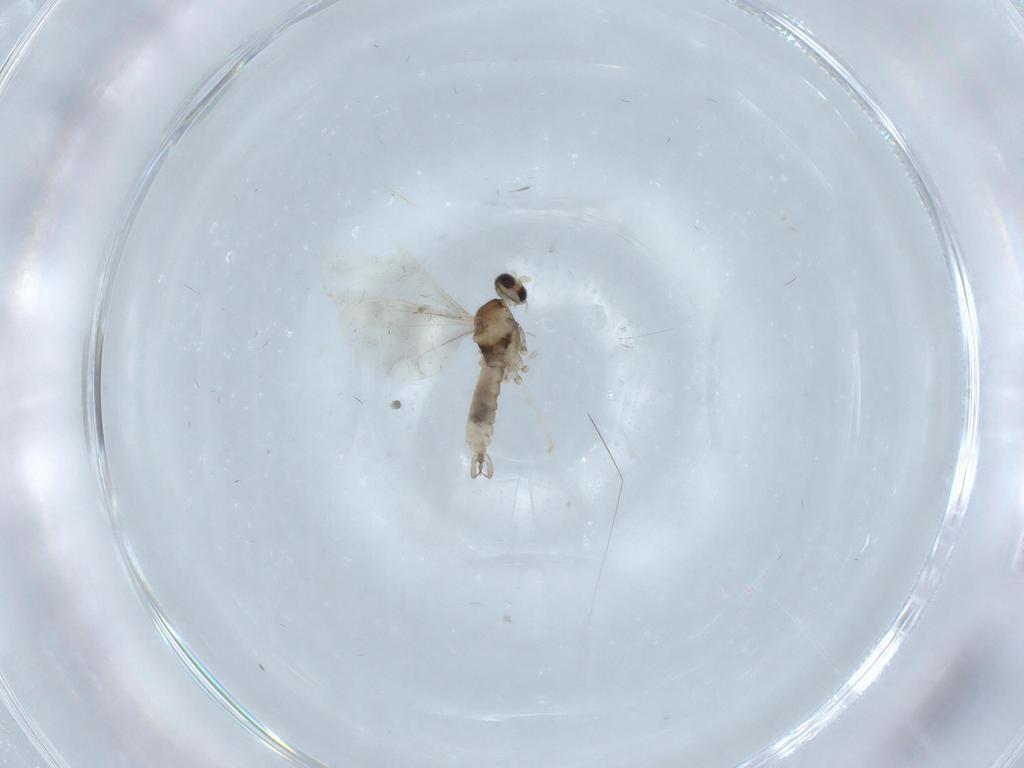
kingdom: Animalia
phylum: Arthropoda
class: Insecta
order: Diptera
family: Cecidomyiidae
